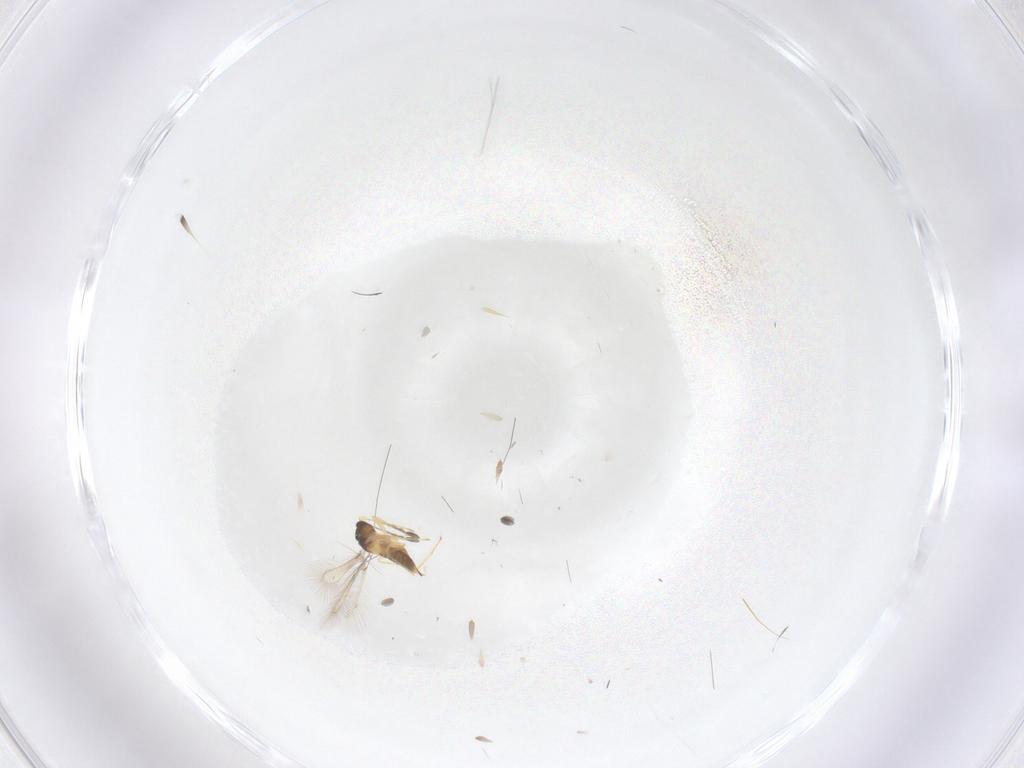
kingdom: Animalia
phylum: Arthropoda
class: Insecta
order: Hymenoptera
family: Mymaridae
